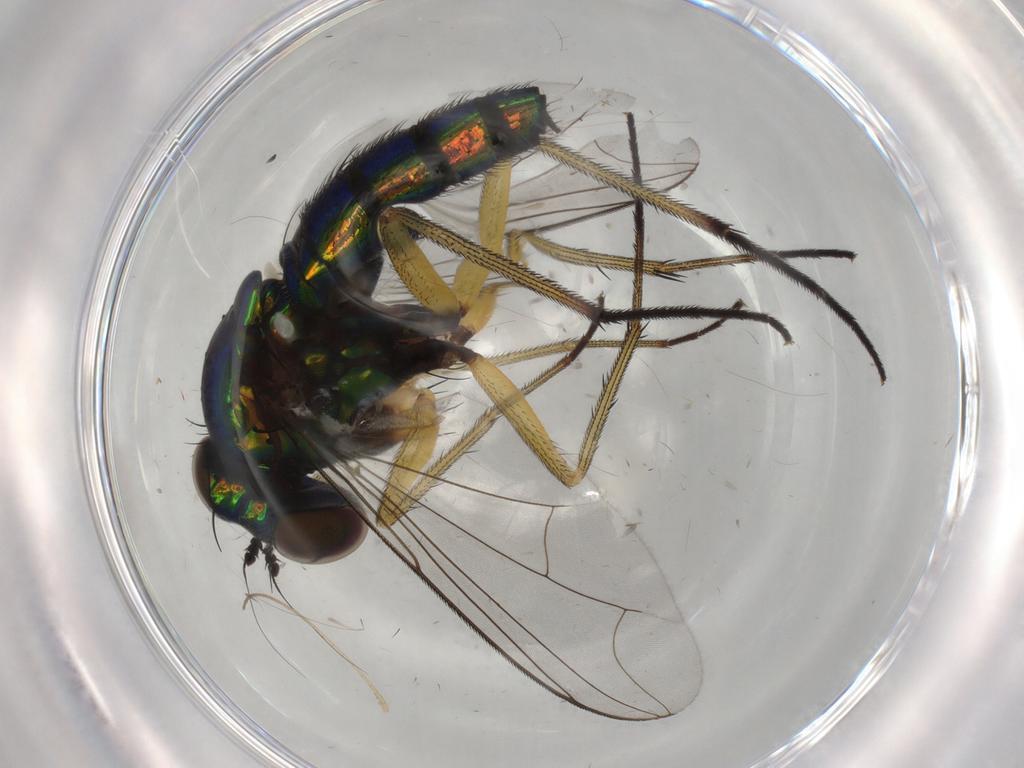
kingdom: Animalia
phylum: Arthropoda
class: Insecta
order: Diptera
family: Dolichopodidae
